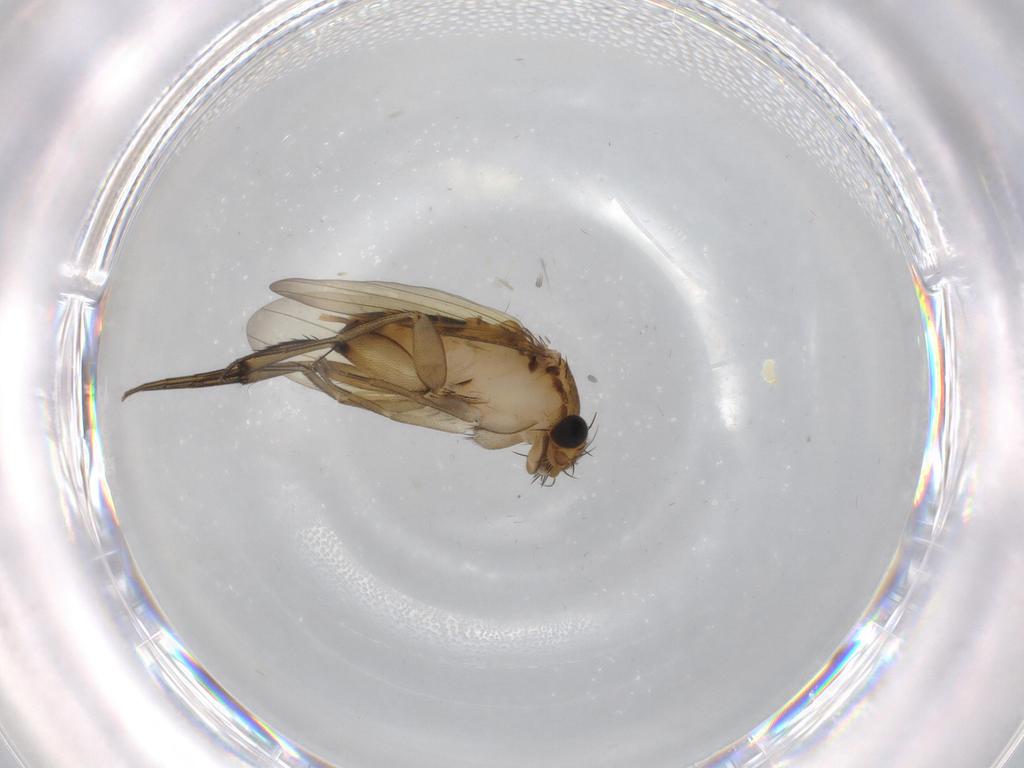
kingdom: Animalia
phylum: Arthropoda
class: Insecta
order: Diptera
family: Phoridae
